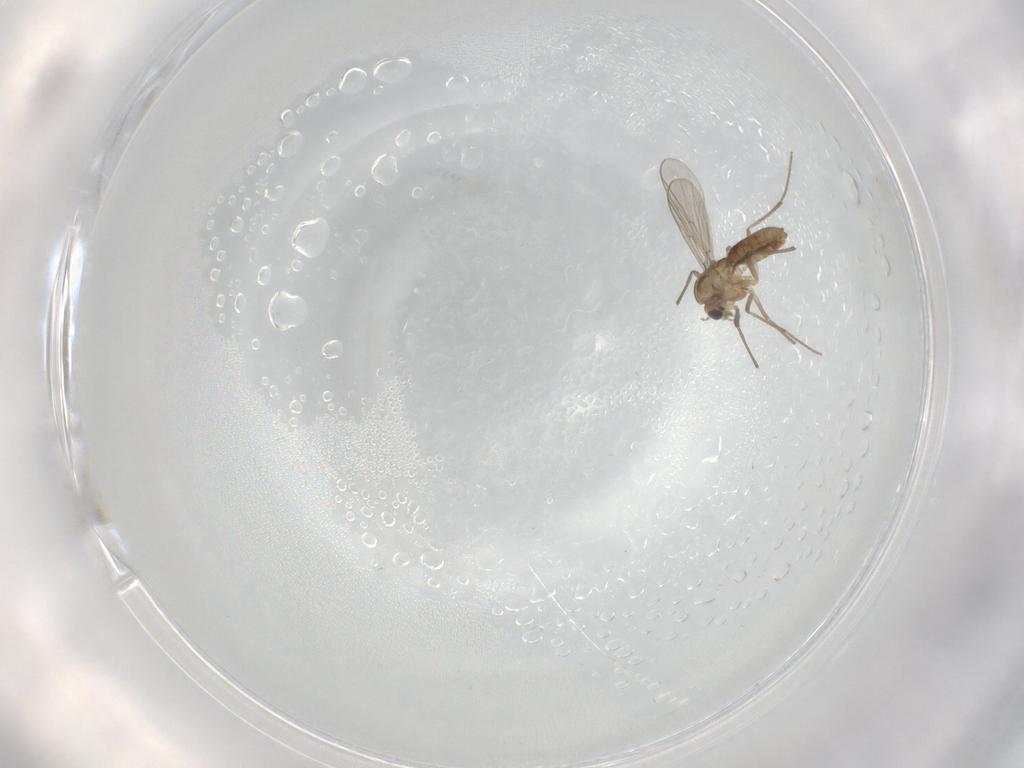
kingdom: Animalia
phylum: Arthropoda
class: Insecta
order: Diptera
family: Chironomidae
